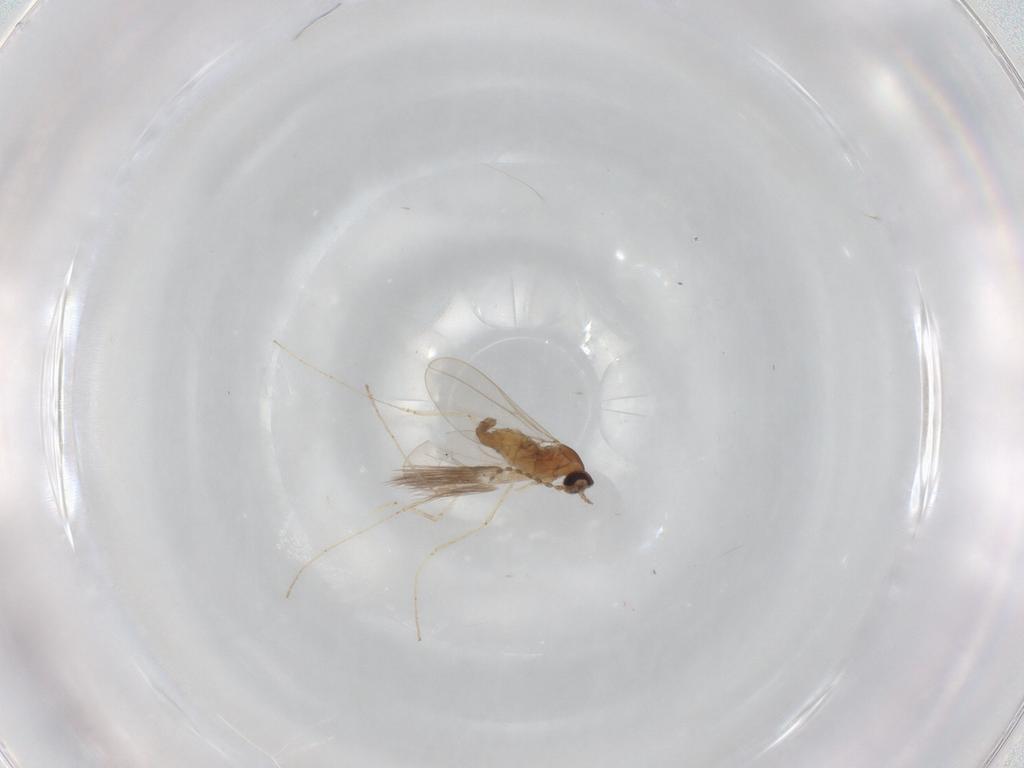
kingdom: Animalia
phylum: Arthropoda
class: Insecta
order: Diptera
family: Cecidomyiidae
